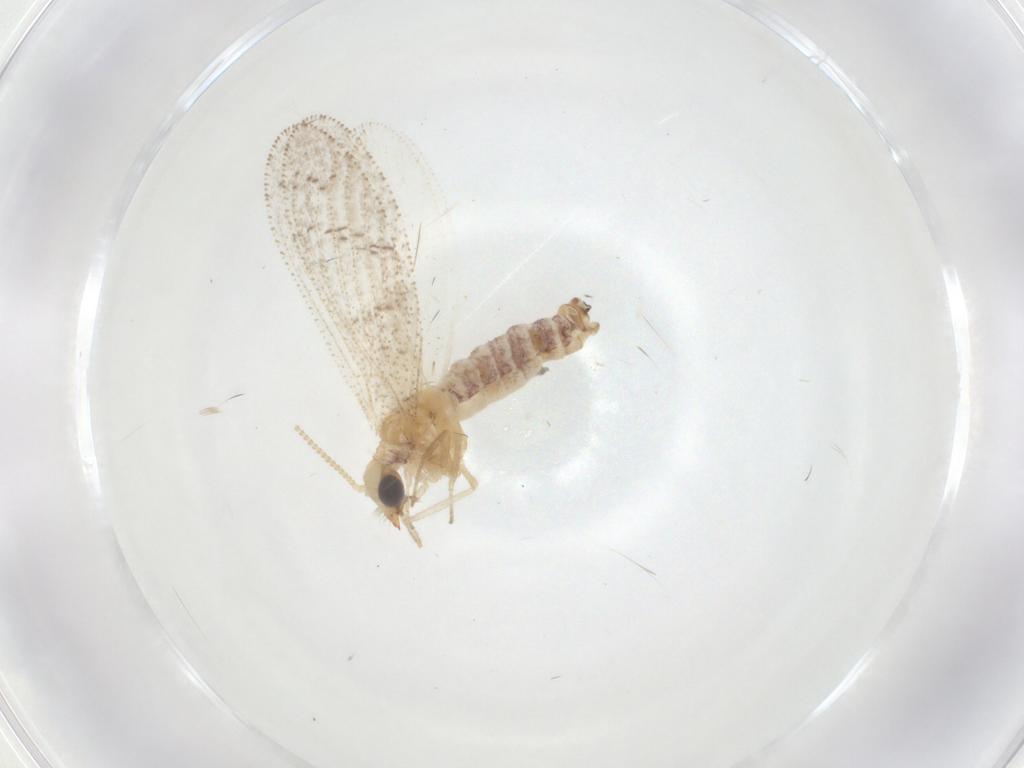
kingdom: Animalia
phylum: Arthropoda
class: Insecta
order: Neuroptera
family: Hemerobiidae
